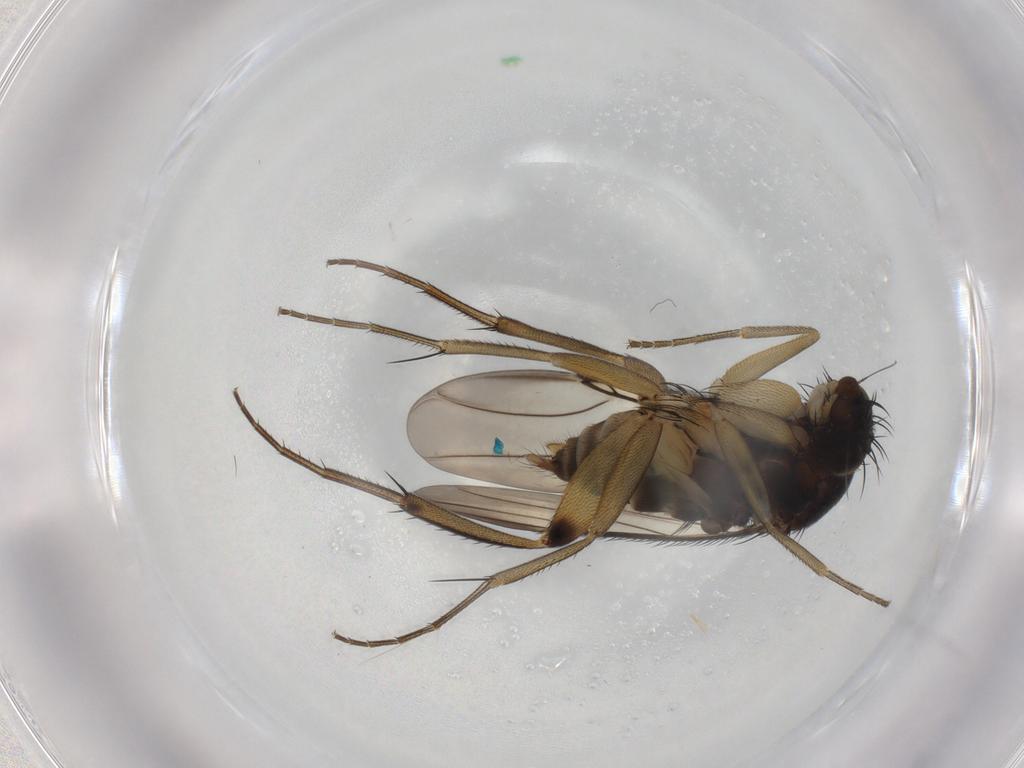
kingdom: Animalia
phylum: Arthropoda
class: Insecta
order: Diptera
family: Phoridae
